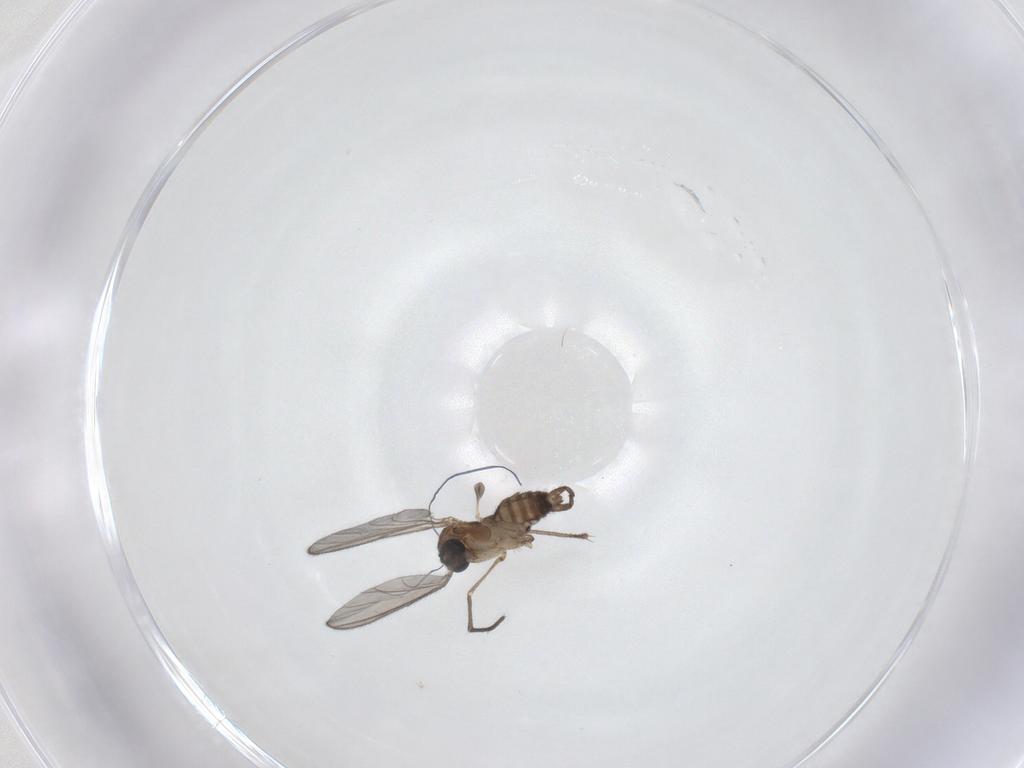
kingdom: Animalia
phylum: Arthropoda
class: Insecta
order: Diptera
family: Sciaridae
